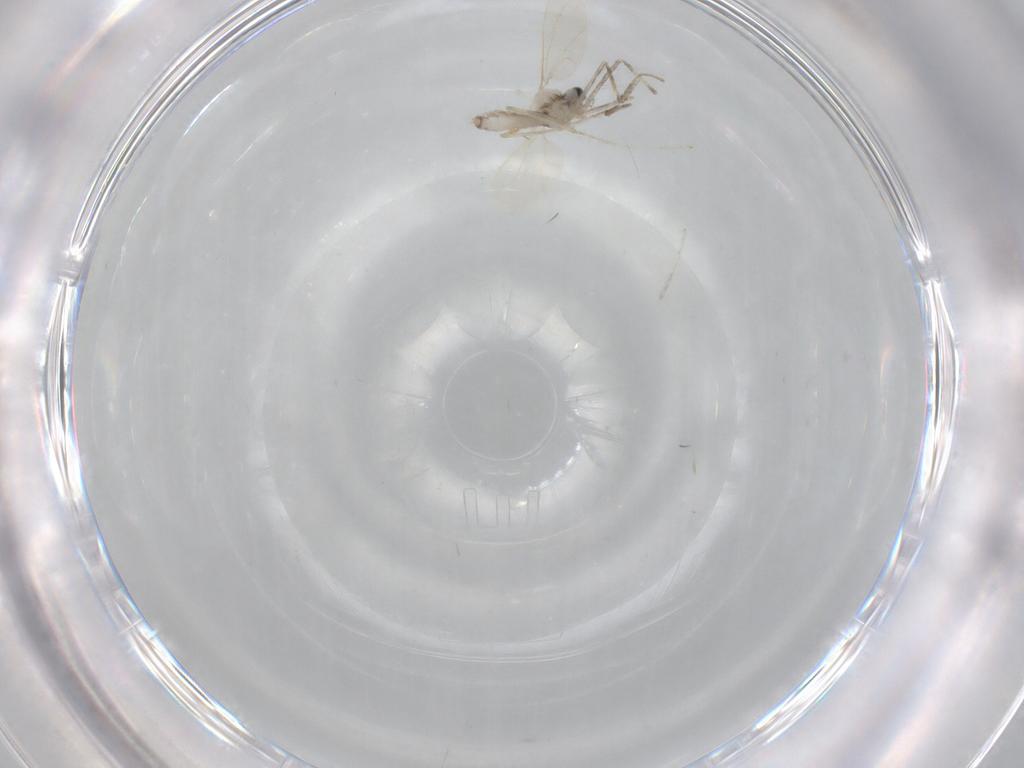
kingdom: Animalia
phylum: Arthropoda
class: Insecta
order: Diptera
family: Cecidomyiidae
